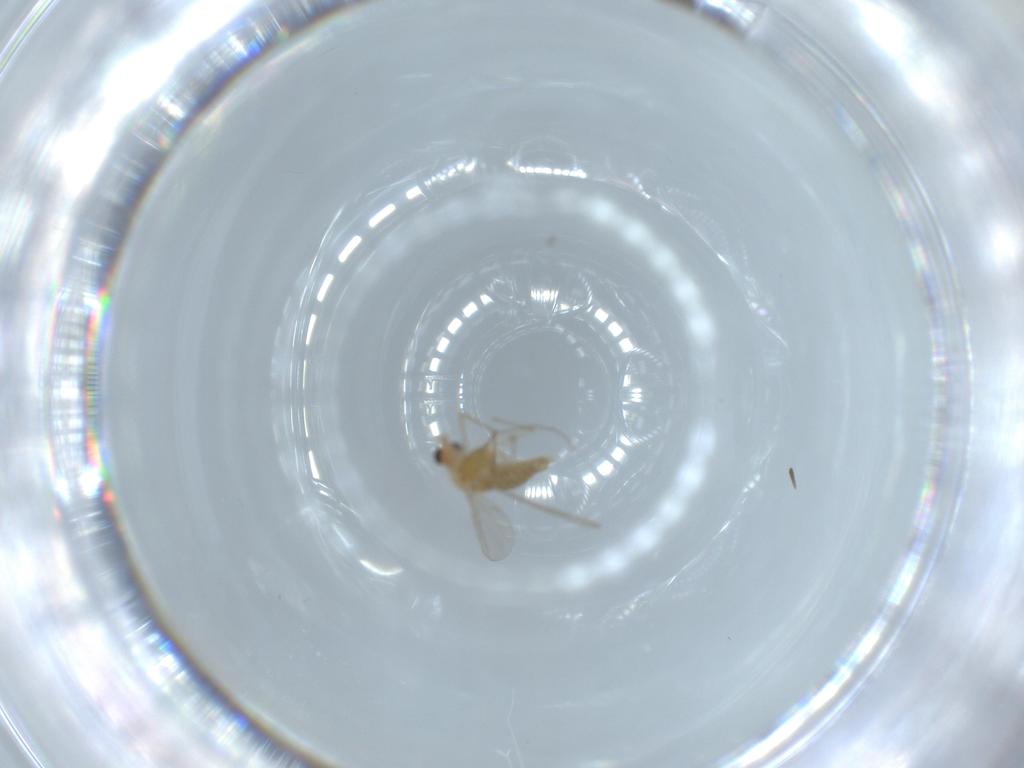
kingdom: Animalia
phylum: Arthropoda
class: Insecta
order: Diptera
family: Chironomidae
